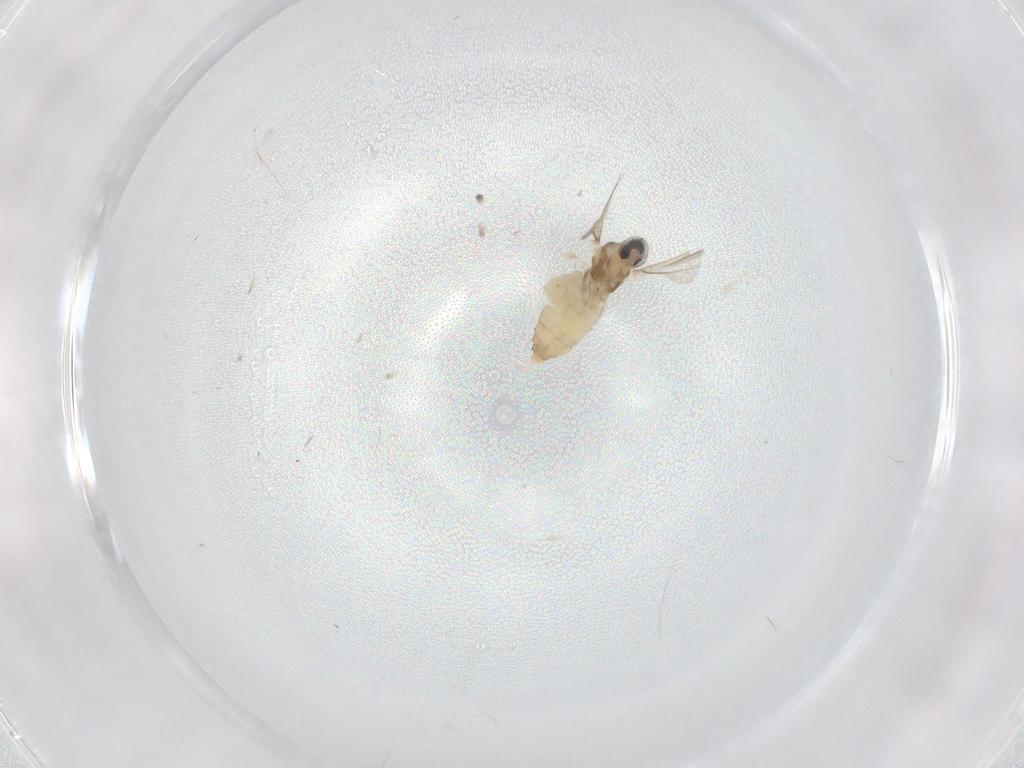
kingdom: Animalia
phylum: Arthropoda
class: Insecta
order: Diptera
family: Cecidomyiidae
